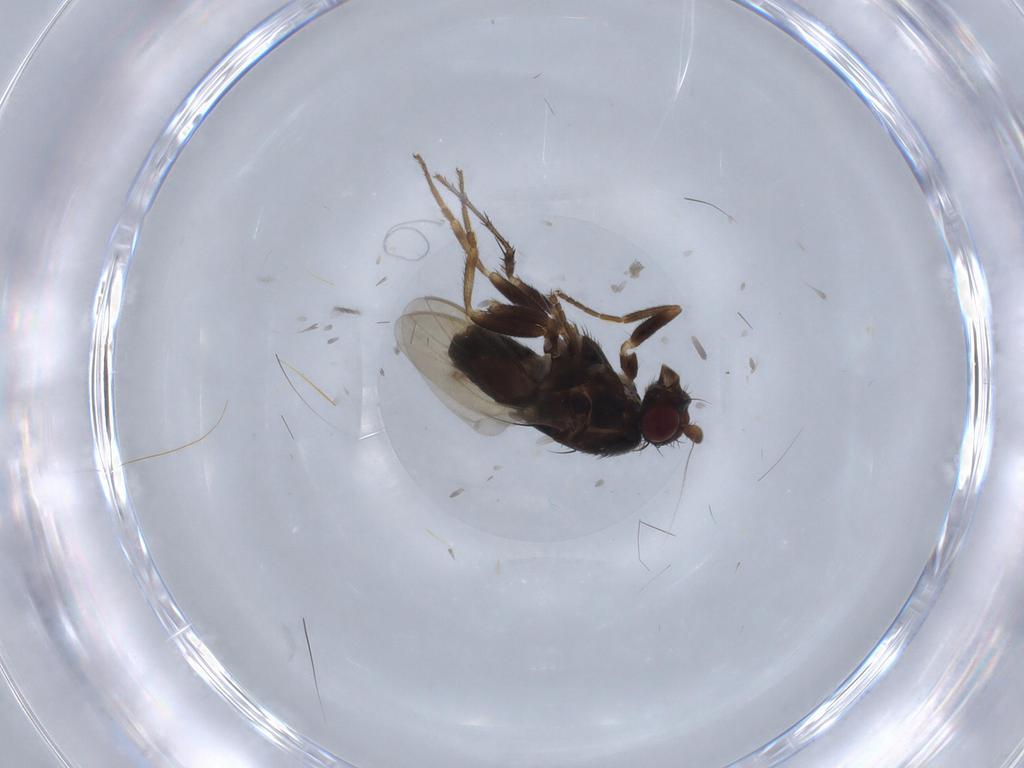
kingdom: Animalia
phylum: Arthropoda
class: Insecta
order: Diptera
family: Sphaeroceridae
